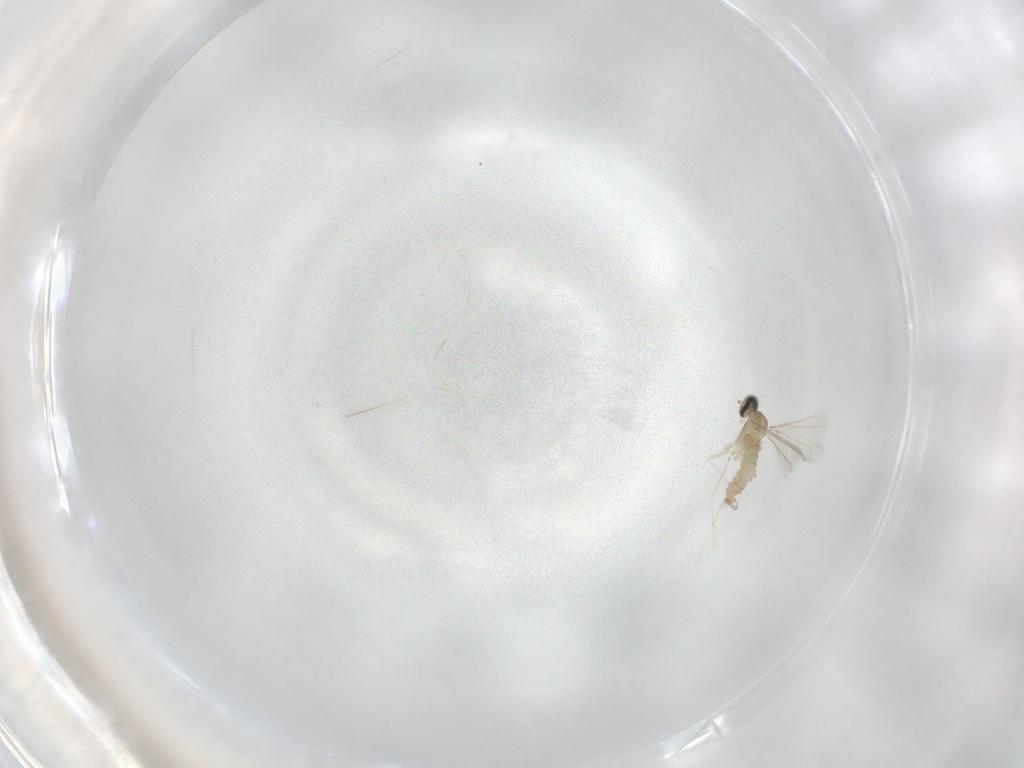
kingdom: Animalia
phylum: Arthropoda
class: Insecta
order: Diptera
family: Cecidomyiidae
